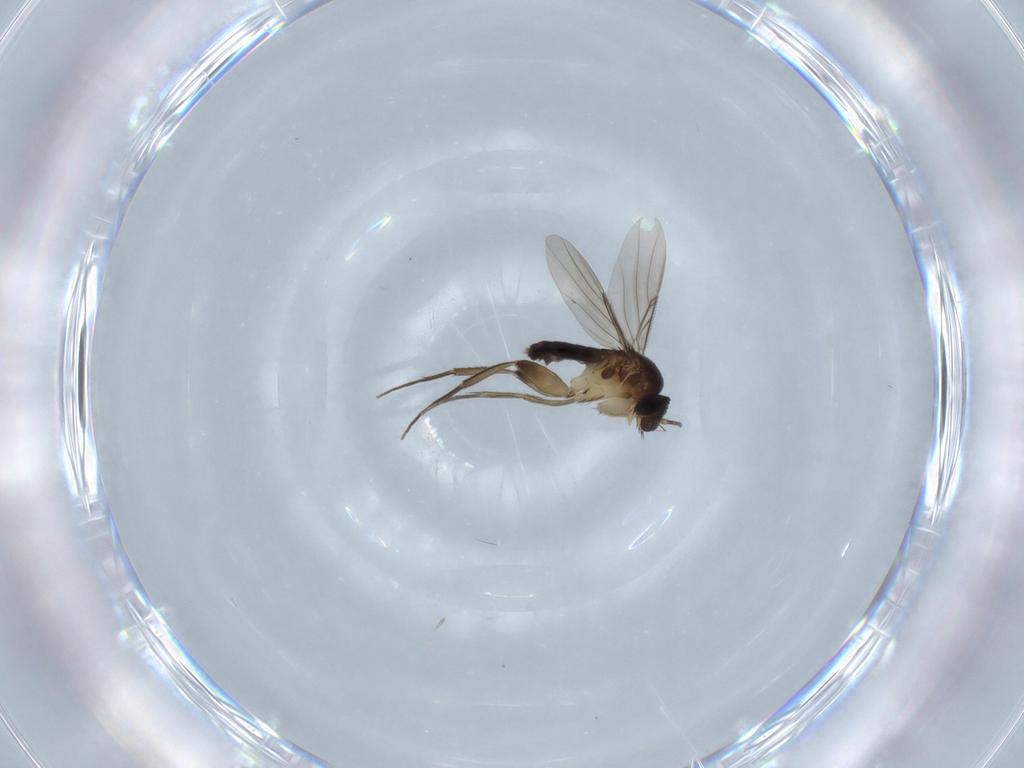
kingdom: Animalia
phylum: Arthropoda
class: Insecta
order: Diptera
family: Phoridae
